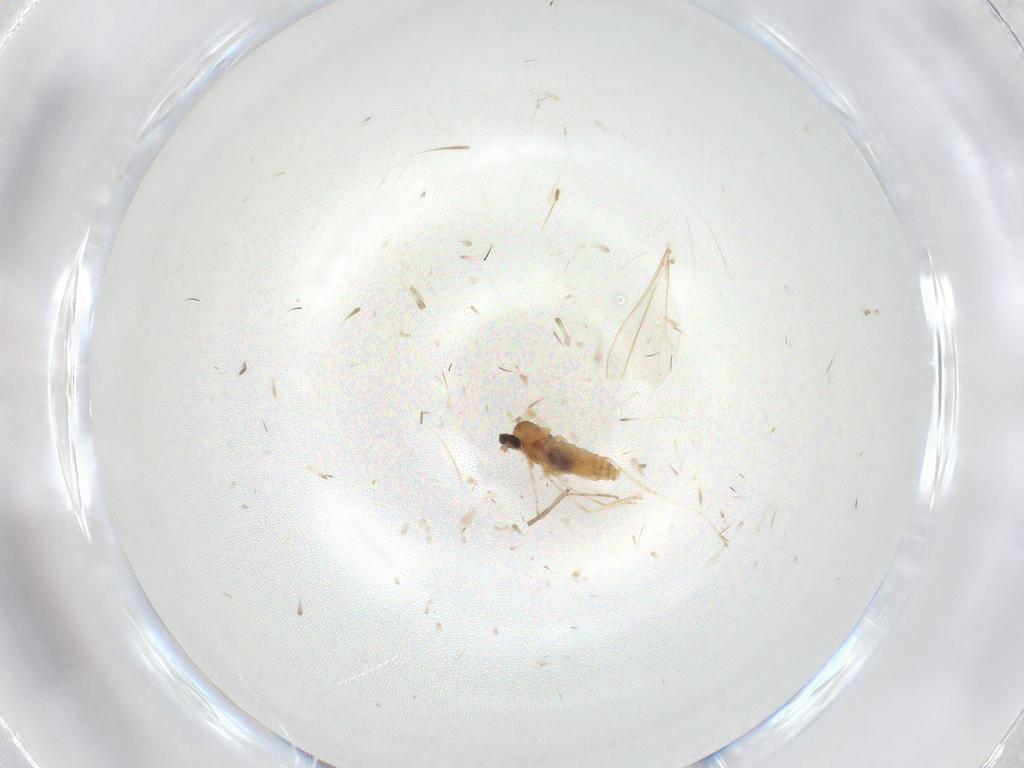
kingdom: Animalia
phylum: Arthropoda
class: Insecta
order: Diptera
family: Cecidomyiidae
